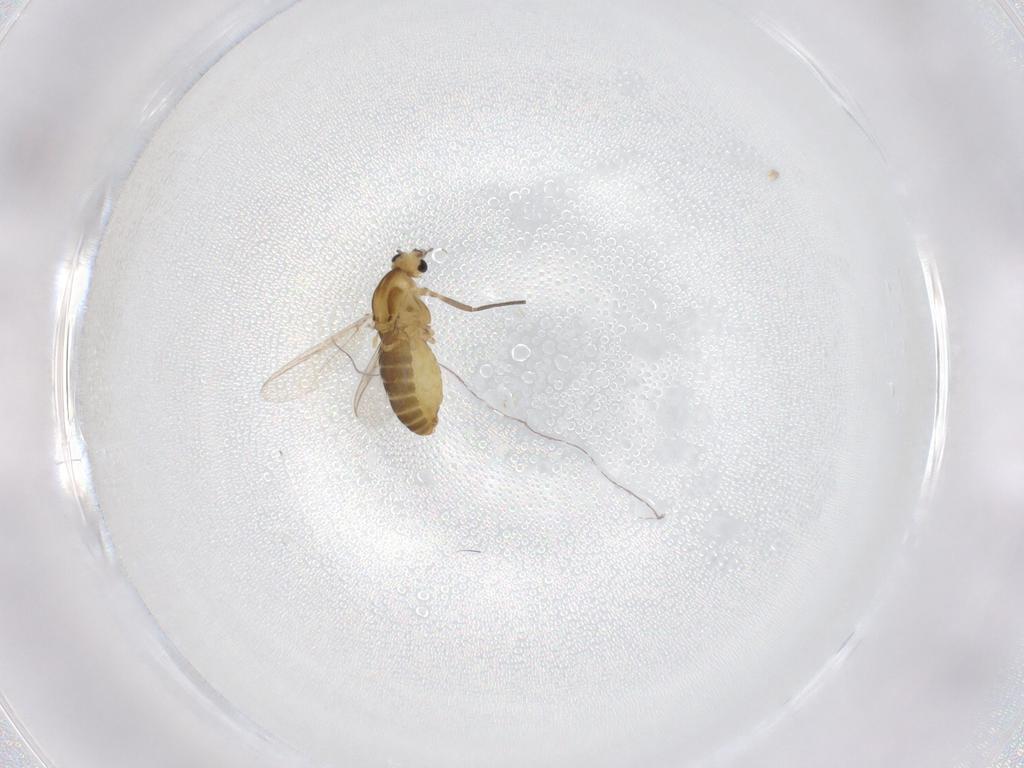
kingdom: Animalia
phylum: Arthropoda
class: Insecta
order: Diptera
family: Chironomidae
